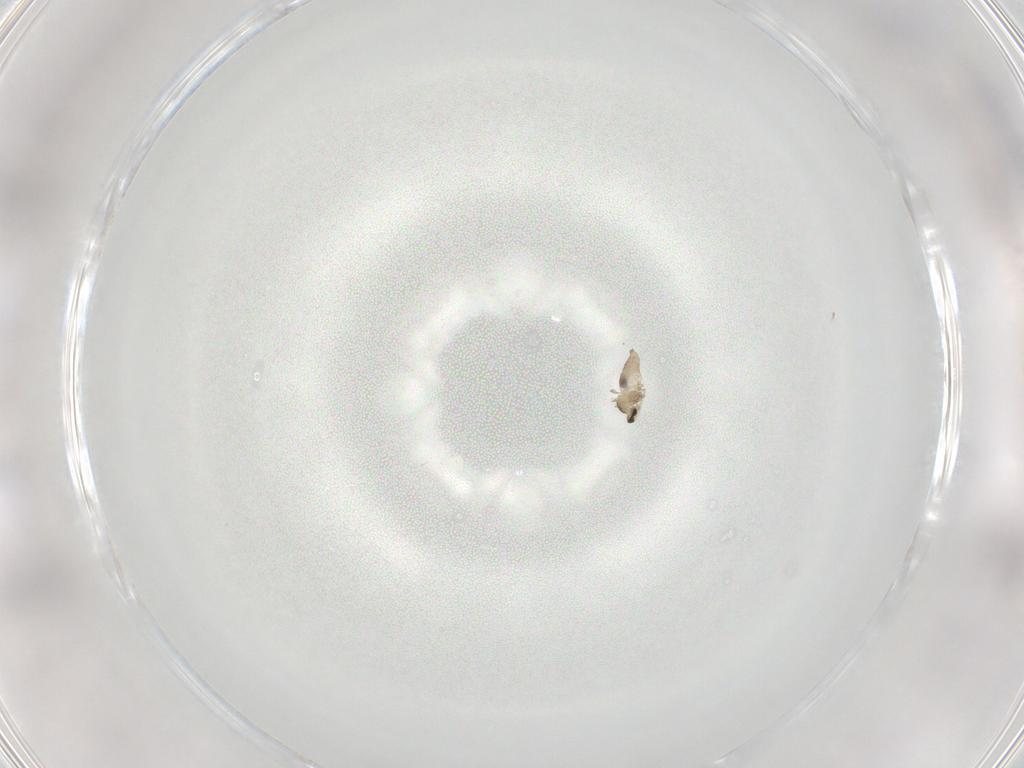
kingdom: Animalia
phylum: Arthropoda
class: Insecta
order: Diptera
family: Cecidomyiidae
